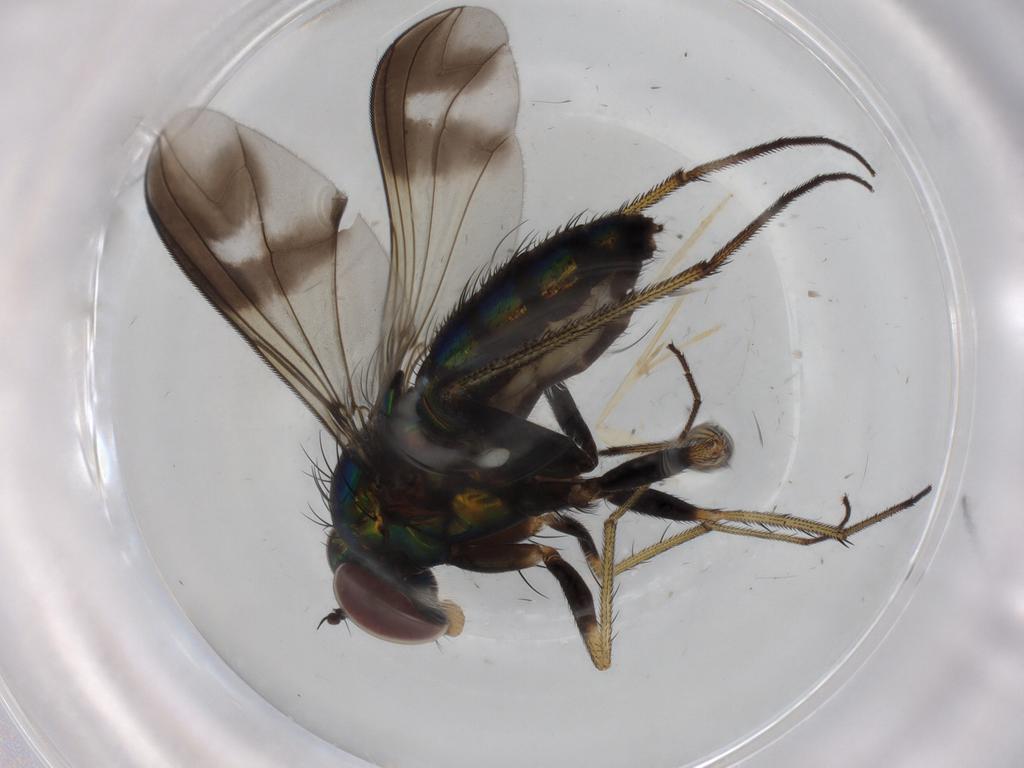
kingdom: Animalia
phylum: Arthropoda
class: Insecta
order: Diptera
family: Dolichopodidae
